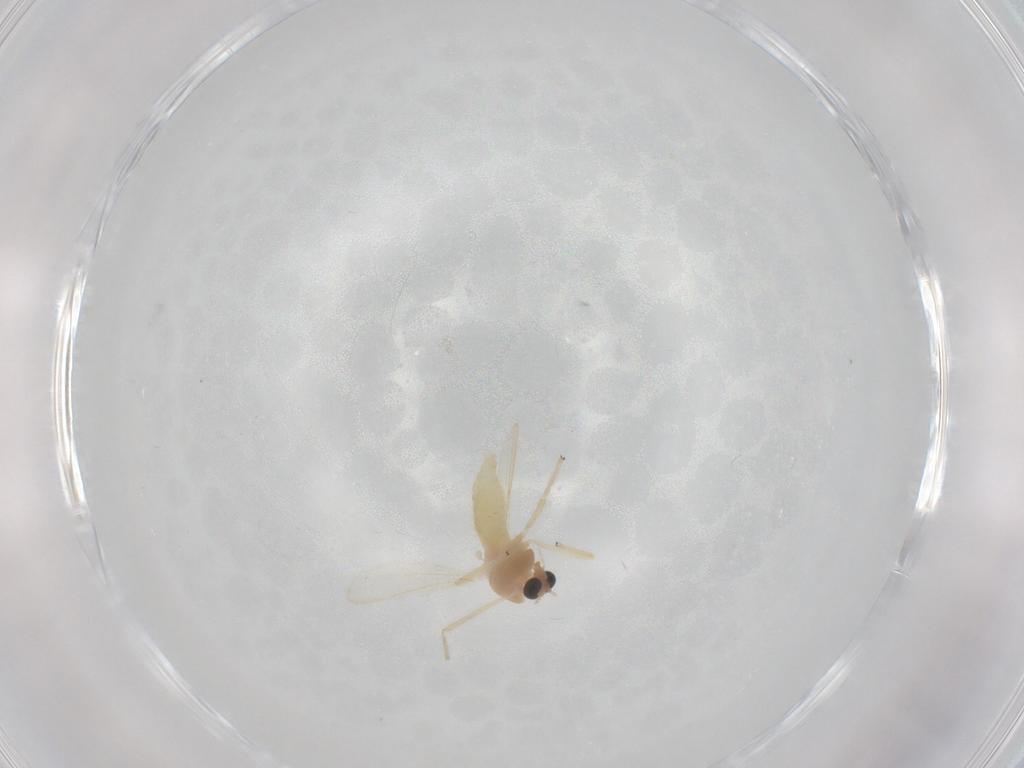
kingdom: Animalia
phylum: Arthropoda
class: Insecta
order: Diptera
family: Chironomidae
